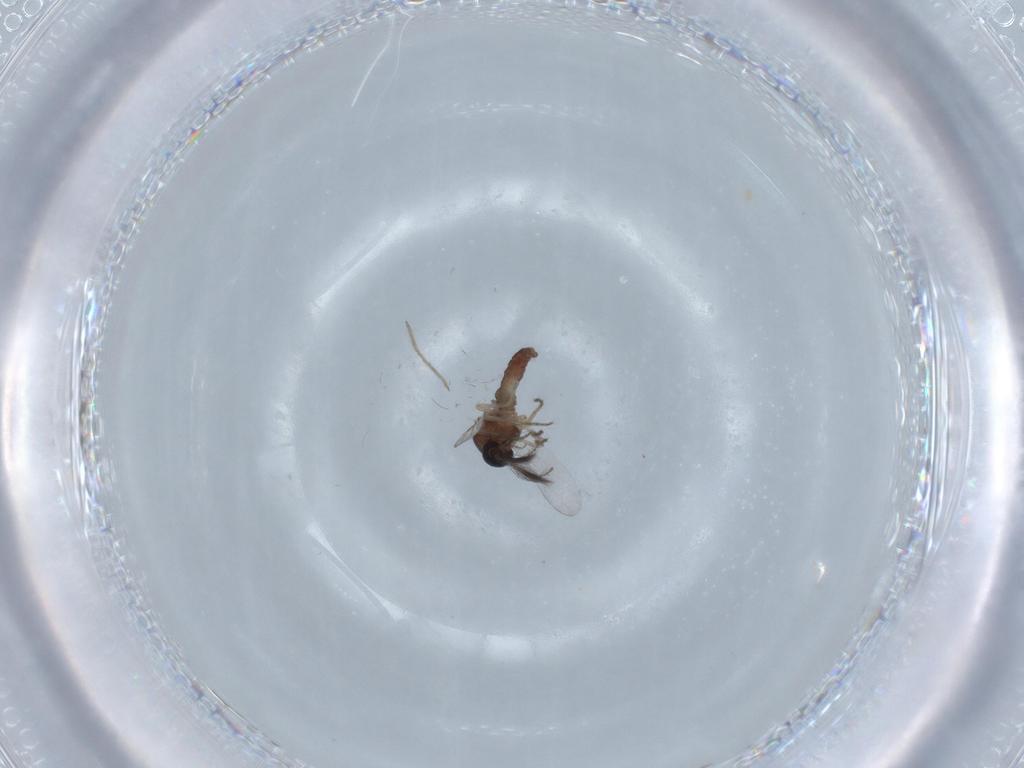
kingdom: Animalia
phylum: Arthropoda
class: Insecta
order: Diptera
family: Ceratopogonidae
